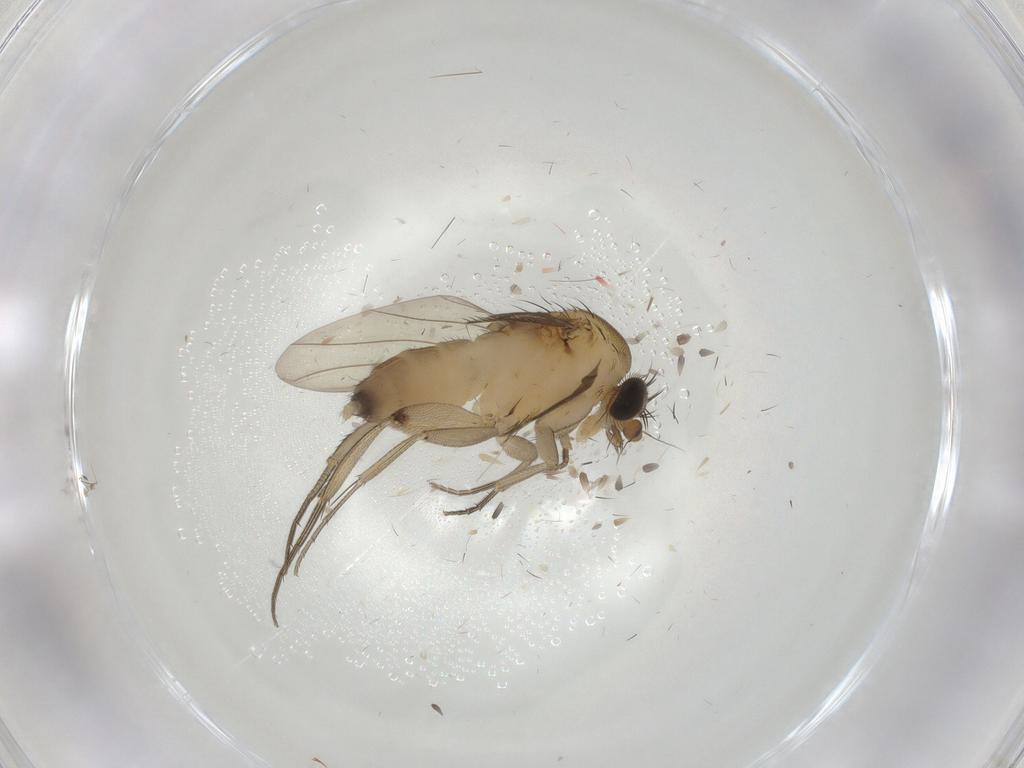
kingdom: Animalia
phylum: Arthropoda
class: Insecta
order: Diptera
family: Phoridae
